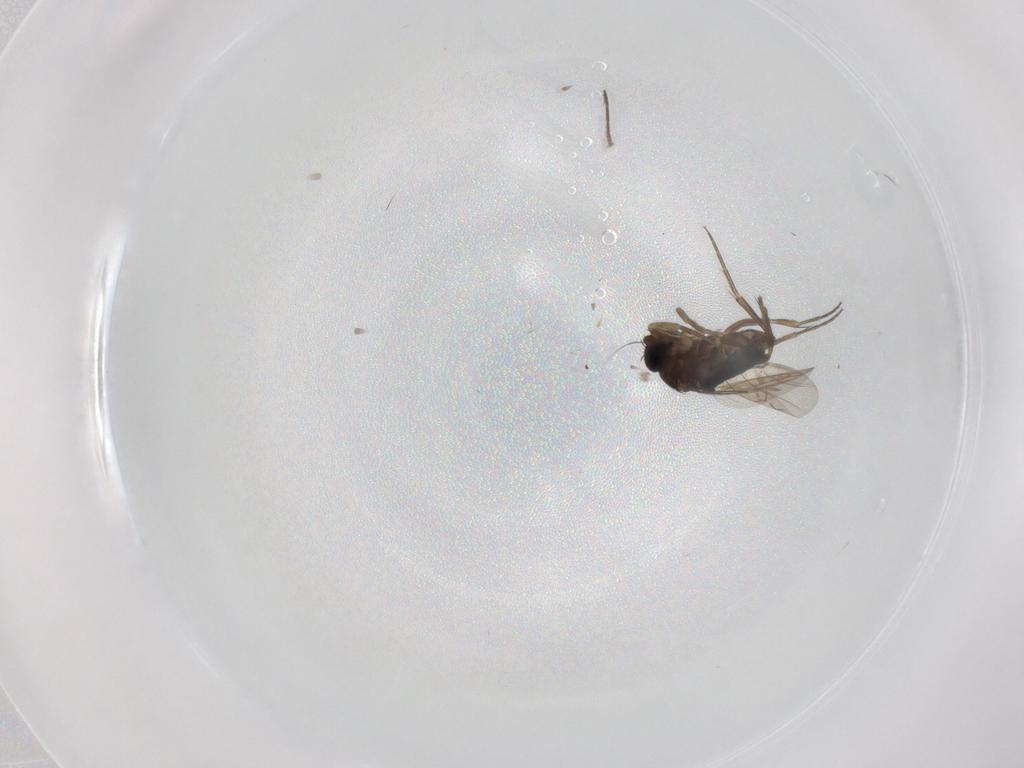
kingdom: Animalia
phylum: Arthropoda
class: Insecta
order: Diptera
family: Phoridae
